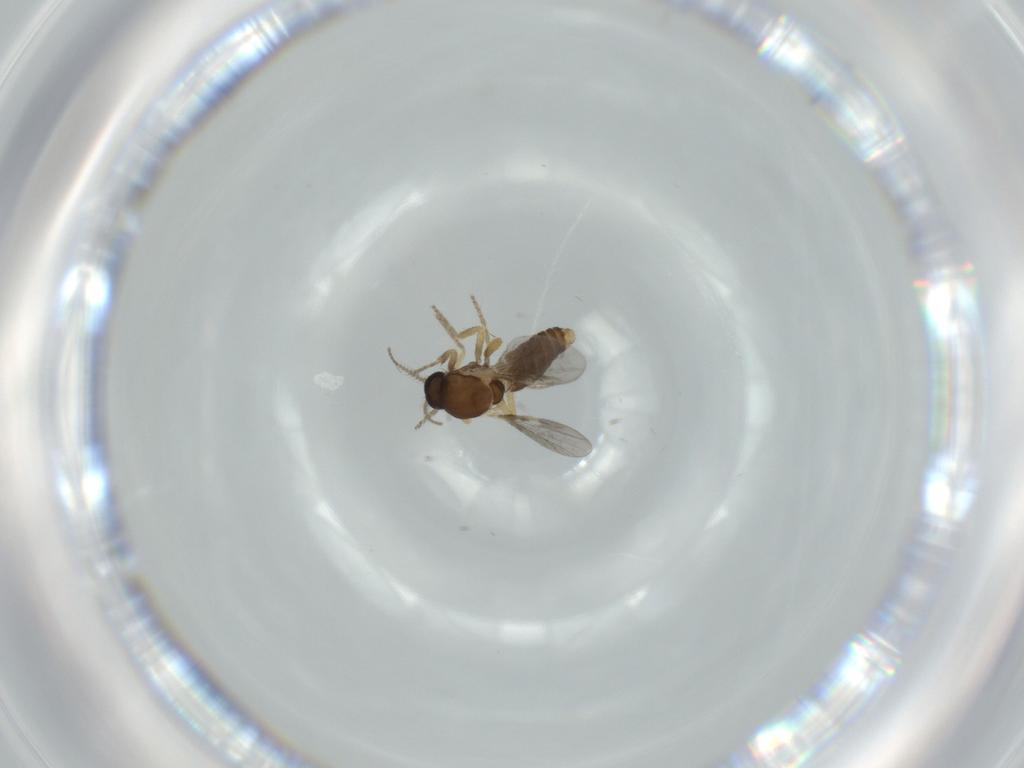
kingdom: Animalia
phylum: Arthropoda
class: Insecta
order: Diptera
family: Ceratopogonidae
